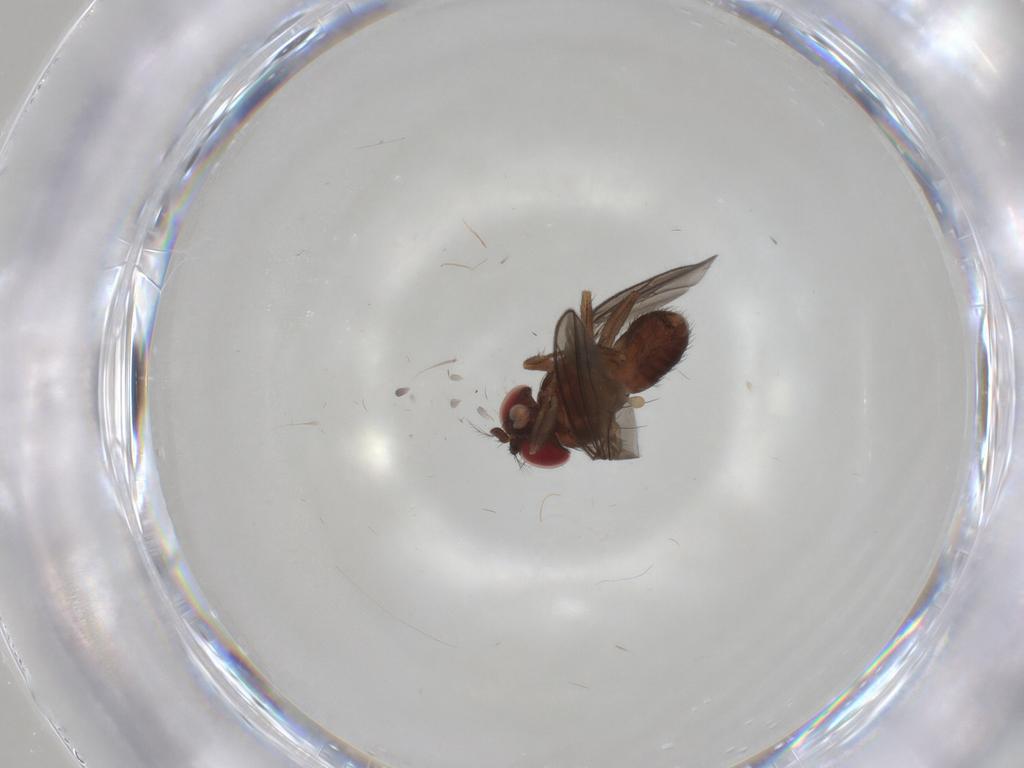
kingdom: Animalia
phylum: Arthropoda
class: Insecta
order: Diptera
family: Drosophilidae
